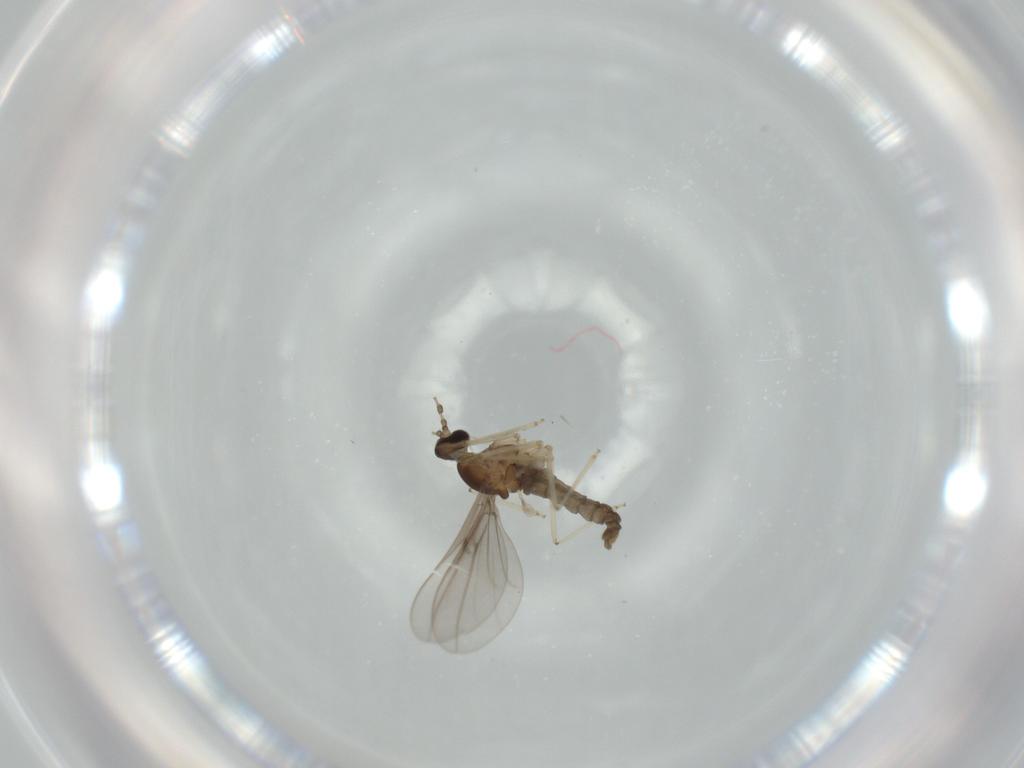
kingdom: Animalia
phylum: Arthropoda
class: Insecta
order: Diptera
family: Cecidomyiidae
